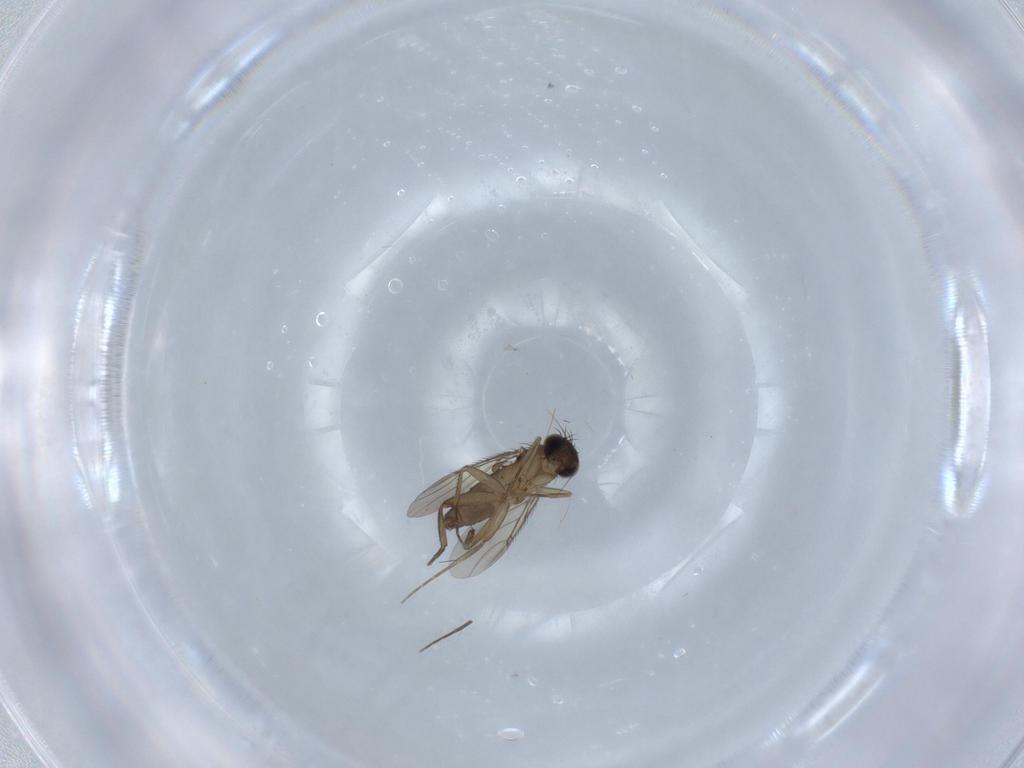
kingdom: Animalia
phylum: Arthropoda
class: Insecta
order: Diptera
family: Phoridae
